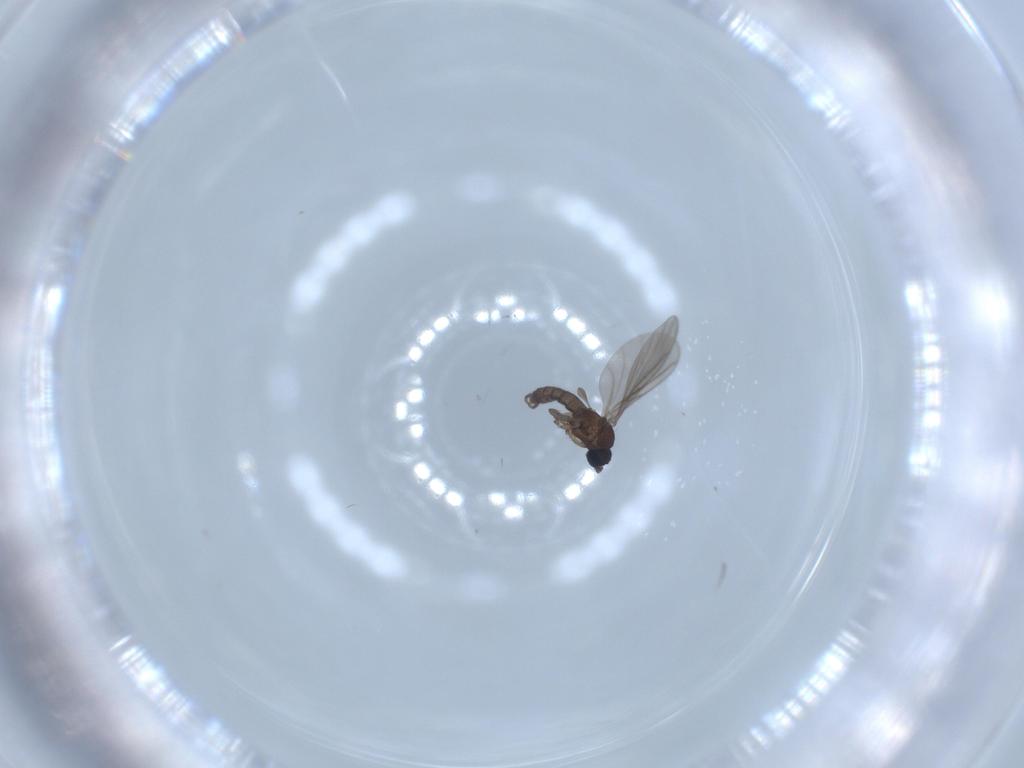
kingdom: Animalia
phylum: Arthropoda
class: Insecta
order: Diptera
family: Sciaridae
